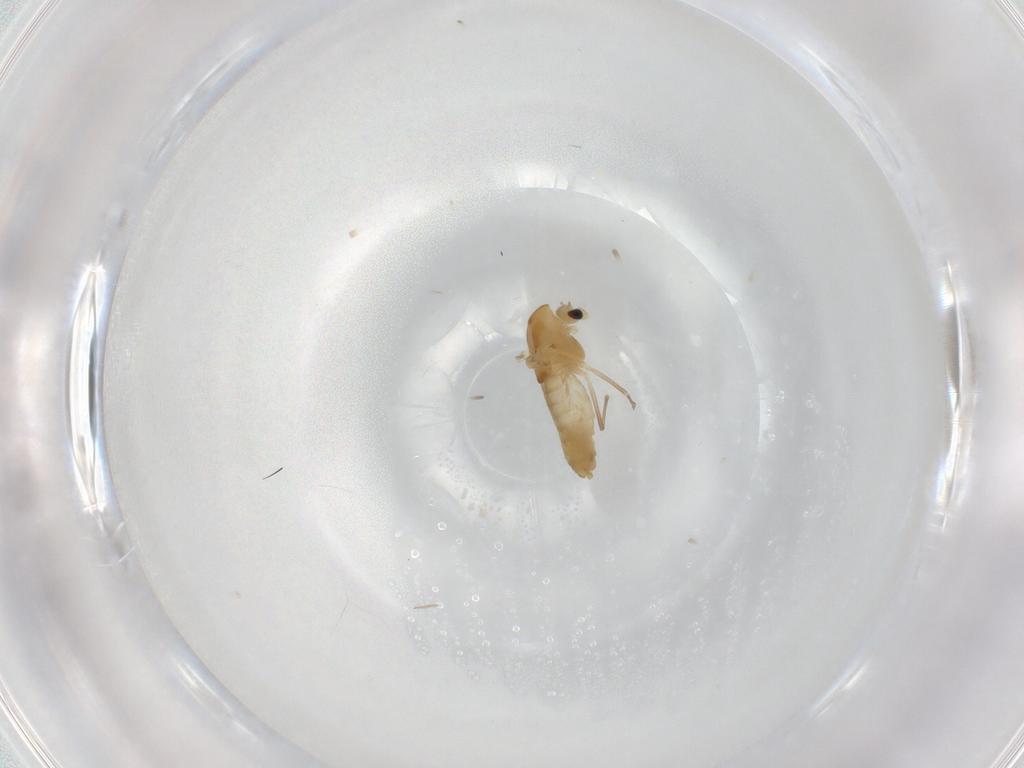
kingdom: Animalia
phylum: Arthropoda
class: Insecta
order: Diptera
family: Chironomidae
